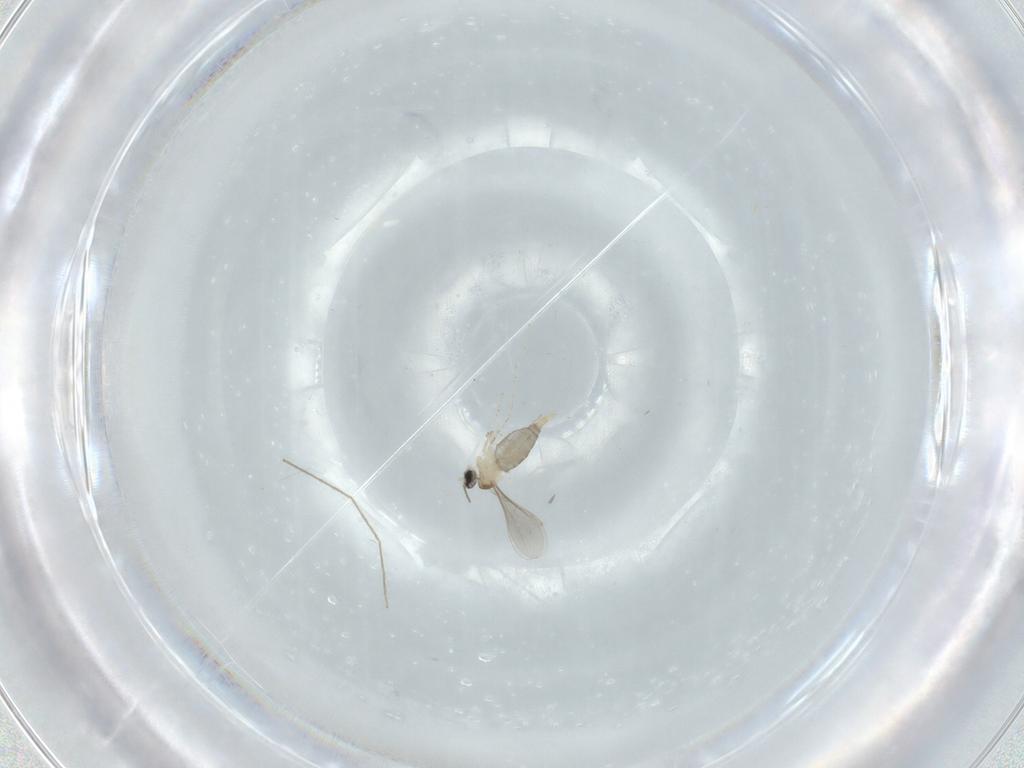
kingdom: Animalia
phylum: Arthropoda
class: Insecta
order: Diptera
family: Cecidomyiidae
